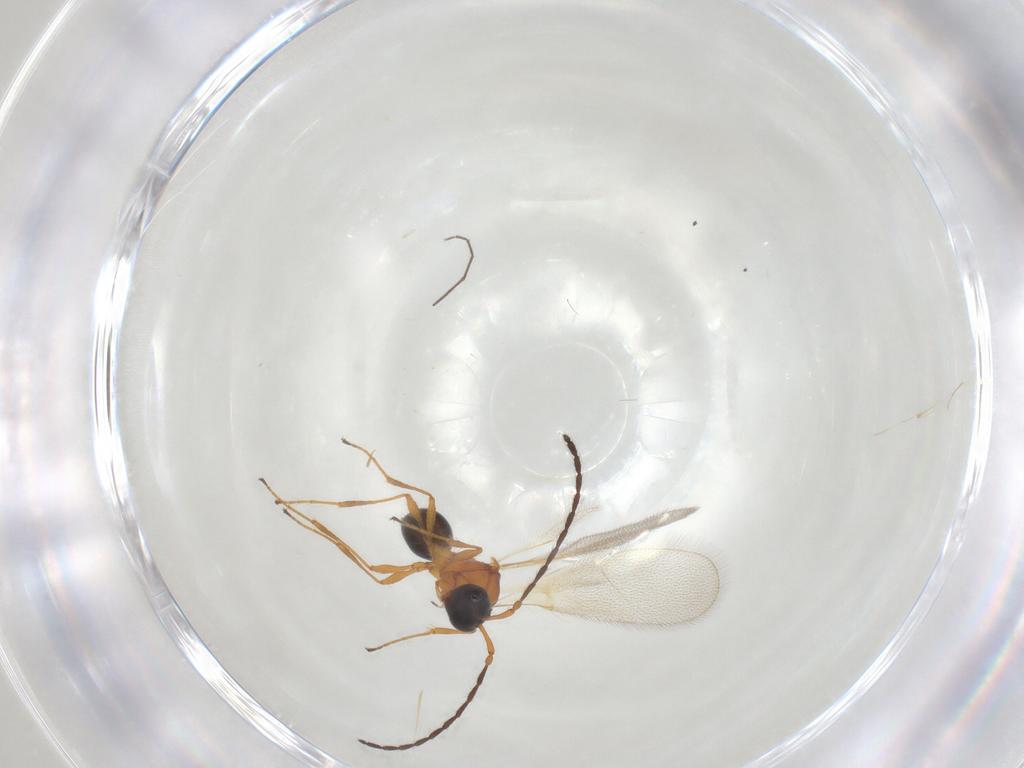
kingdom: Animalia
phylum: Arthropoda
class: Insecta
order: Hymenoptera
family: Diapriidae
